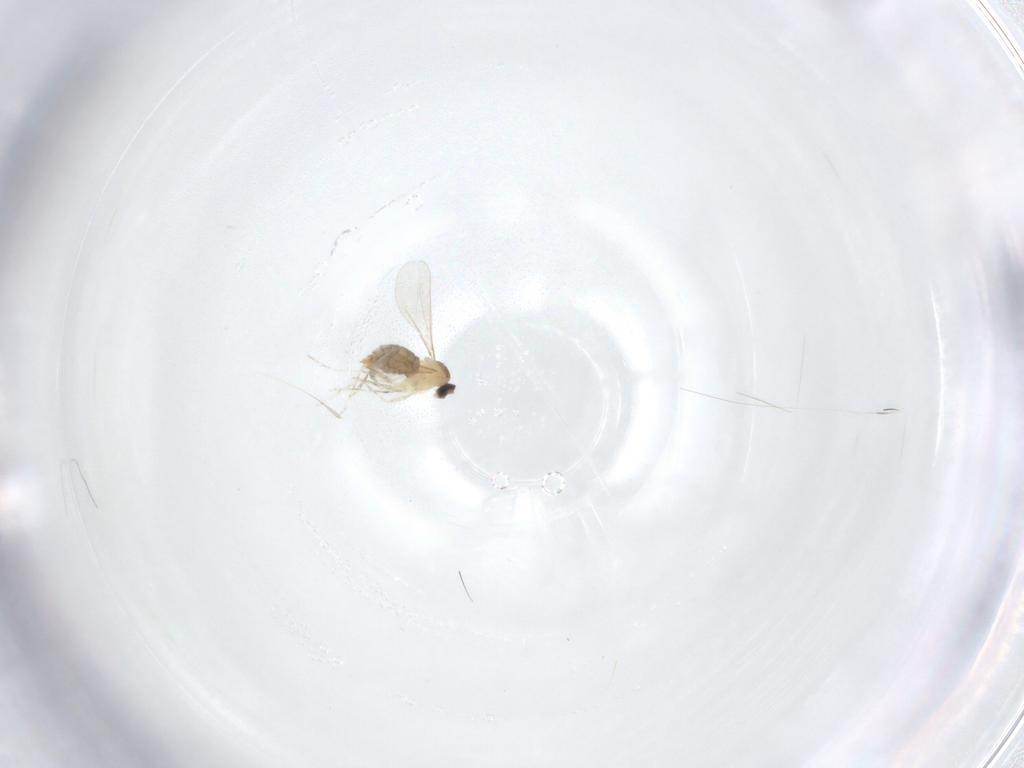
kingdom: Animalia
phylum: Arthropoda
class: Insecta
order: Diptera
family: Cecidomyiidae
